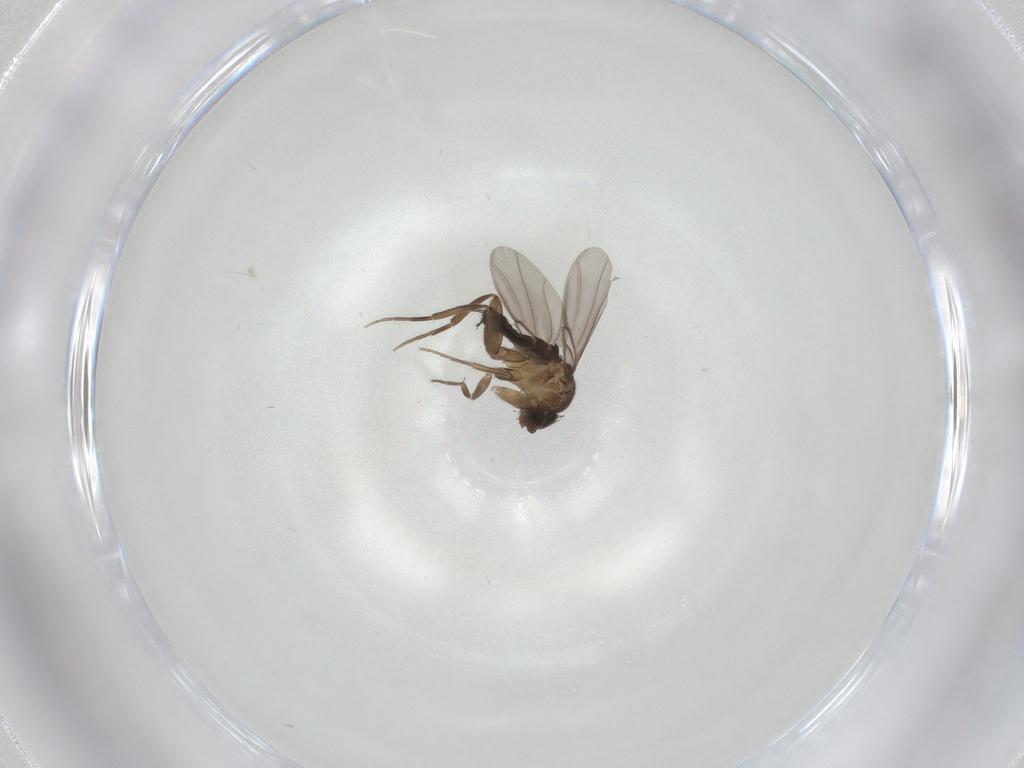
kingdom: Animalia
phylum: Arthropoda
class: Insecta
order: Diptera
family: Phoridae
